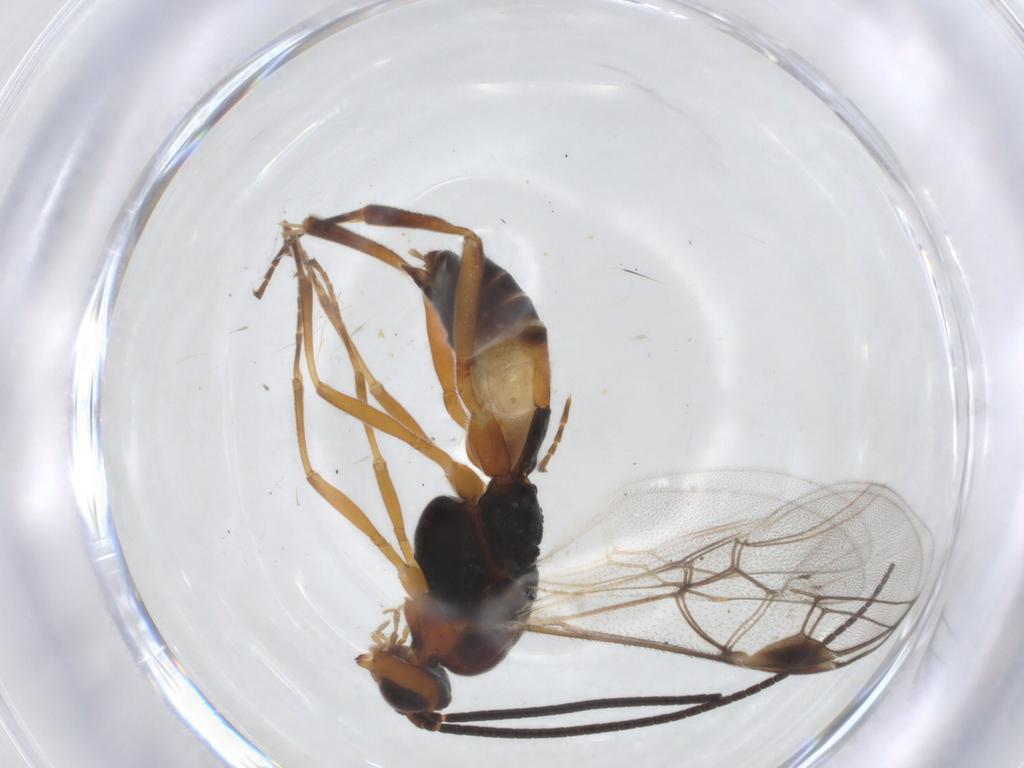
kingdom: Animalia
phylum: Arthropoda
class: Insecta
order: Hymenoptera
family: Braconidae
